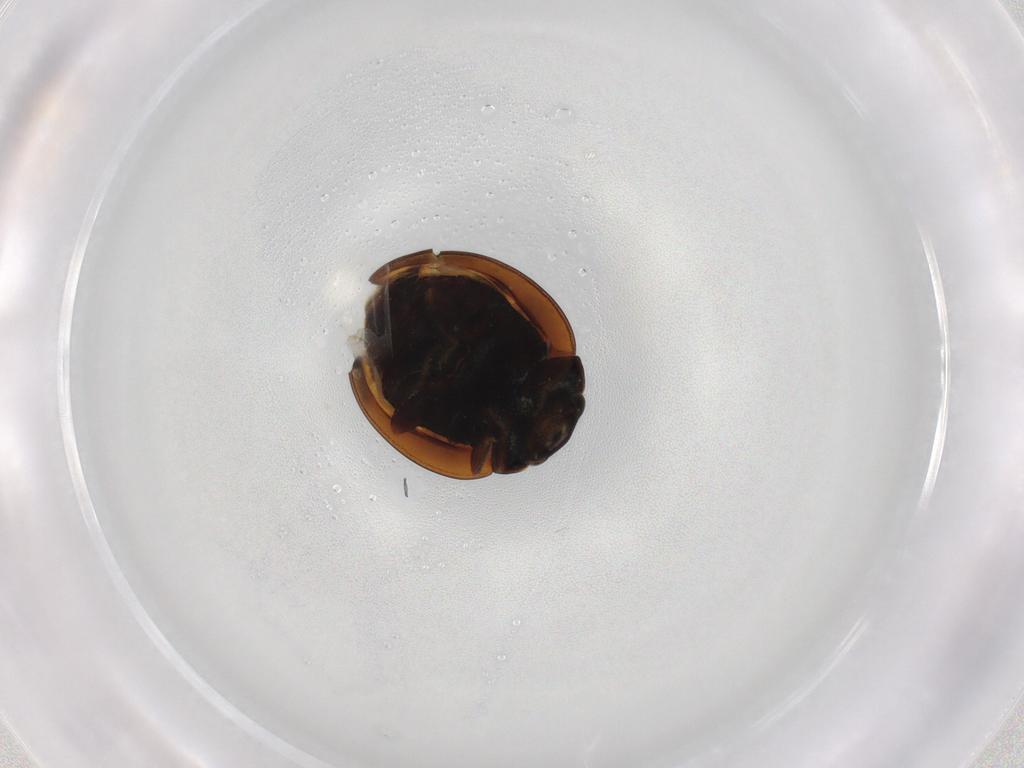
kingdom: Animalia
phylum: Arthropoda
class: Insecta
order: Coleoptera
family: Coccinellidae
